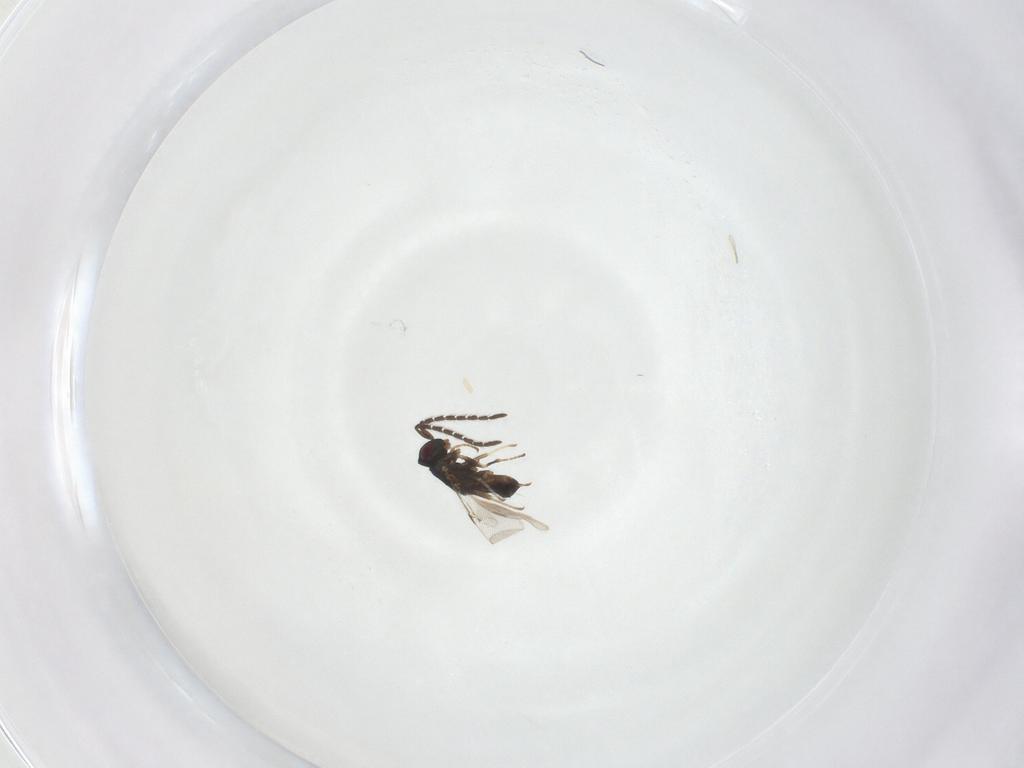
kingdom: Animalia
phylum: Arthropoda
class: Insecta
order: Hymenoptera
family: Encyrtidae
